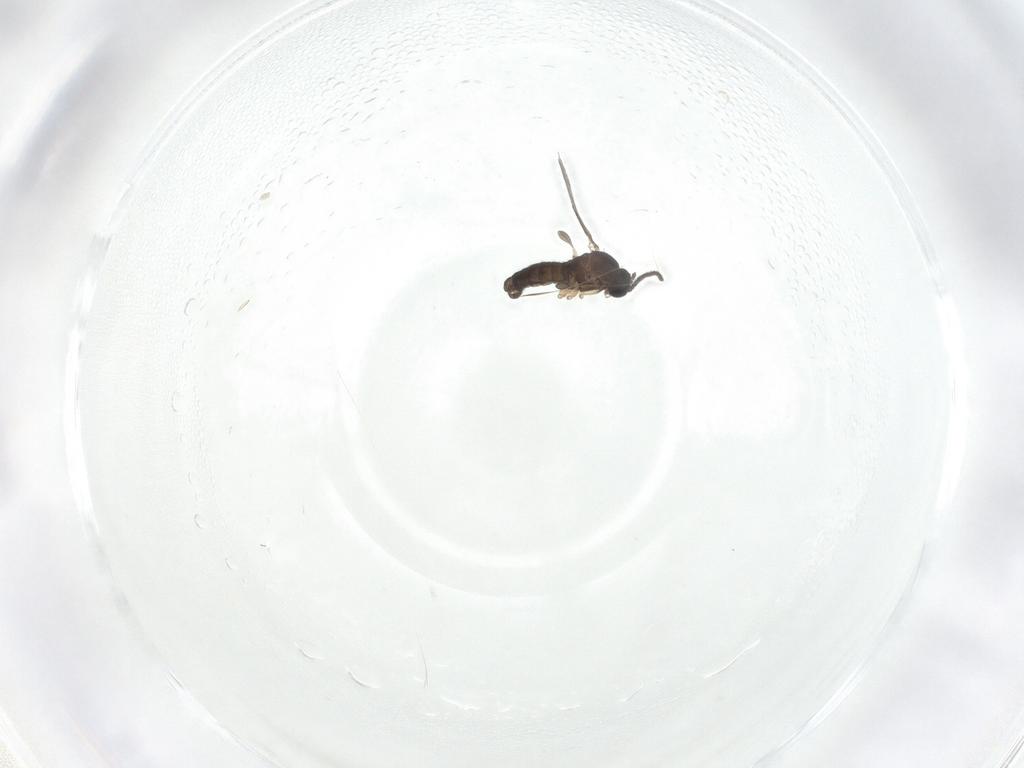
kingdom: Animalia
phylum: Arthropoda
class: Insecta
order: Diptera
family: Sciaridae
